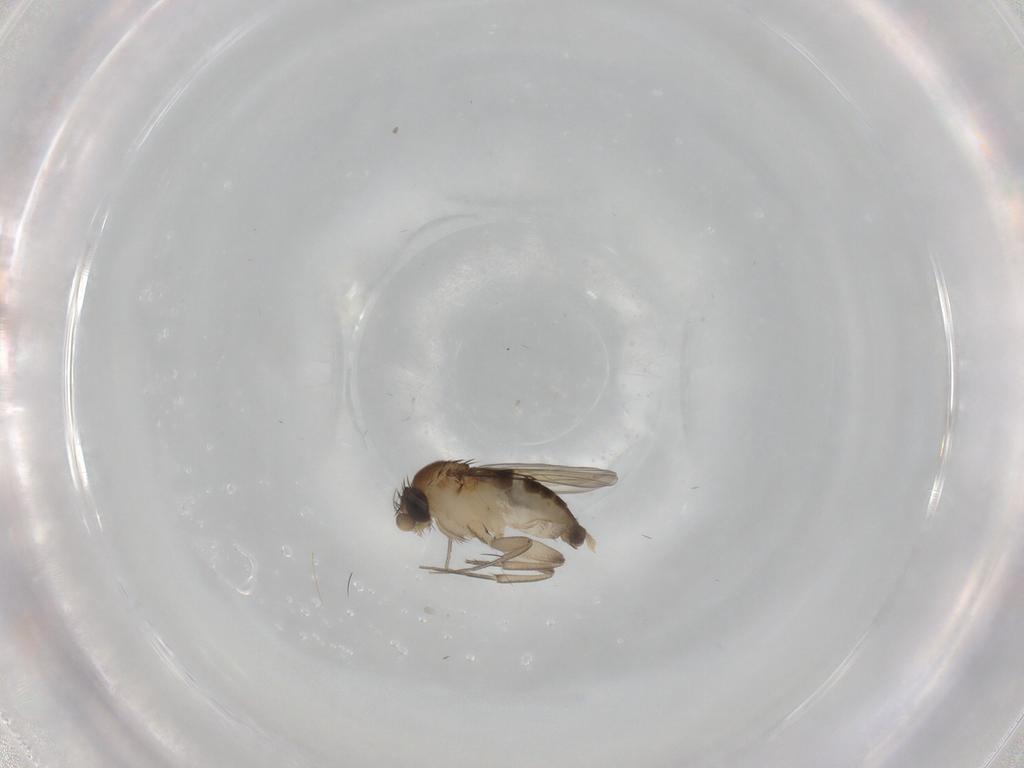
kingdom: Animalia
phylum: Arthropoda
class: Insecta
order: Diptera
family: Phoridae
